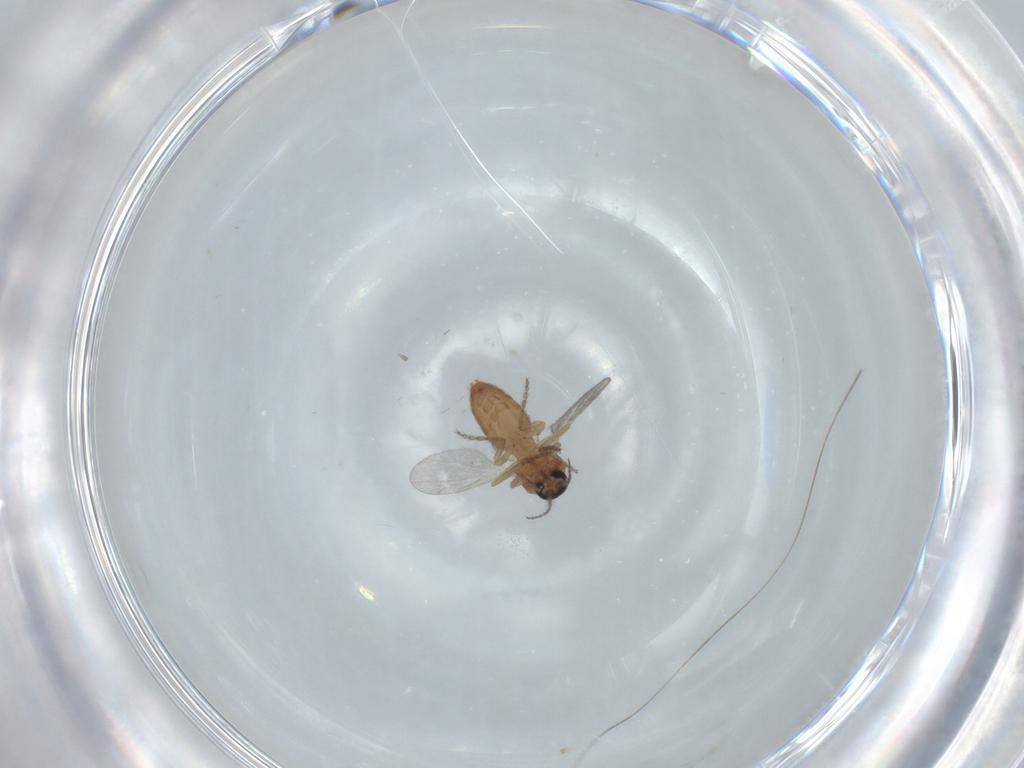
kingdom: Animalia
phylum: Arthropoda
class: Insecta
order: Diptera
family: Ceratopogonidae
